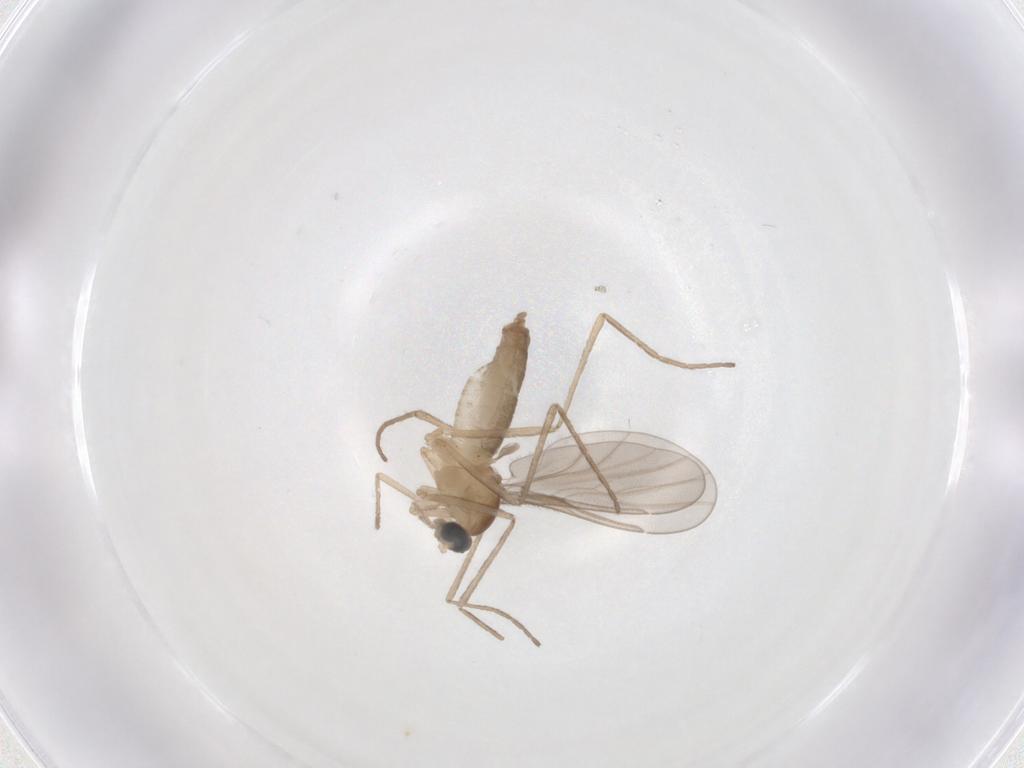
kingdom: Animalia
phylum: Arthropoda
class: Insecta
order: Diptera
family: Cecidomyiidae
